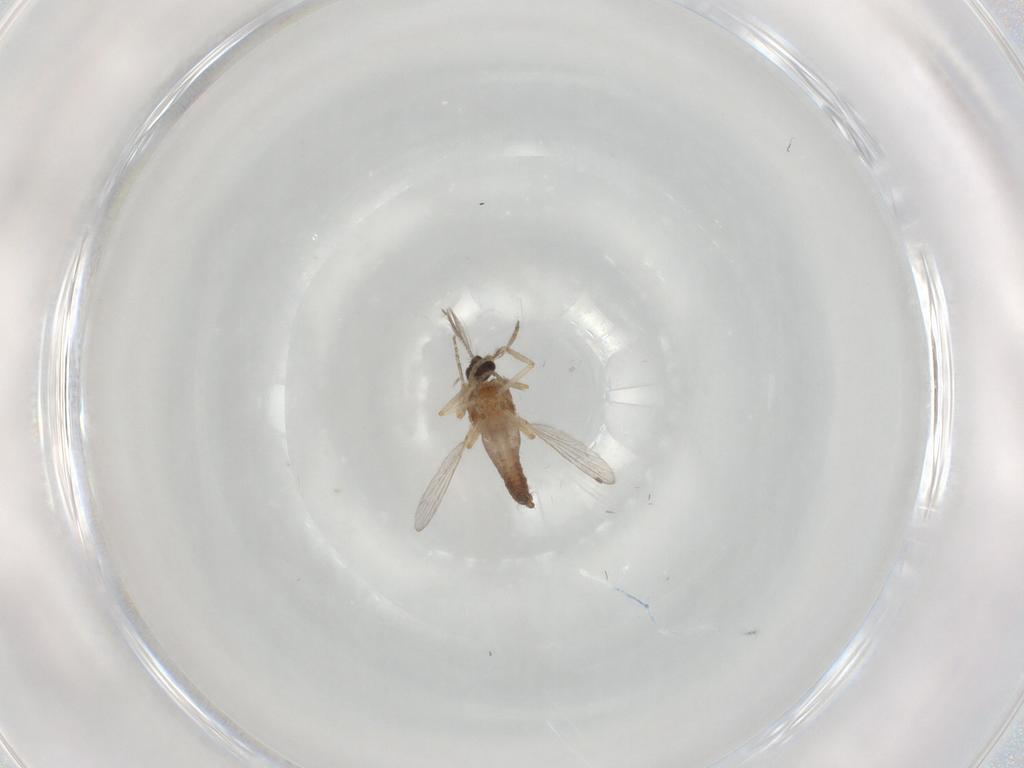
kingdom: Animalia
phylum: Arthropoda
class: Insecta
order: Diptera
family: Ceratopogonidae
